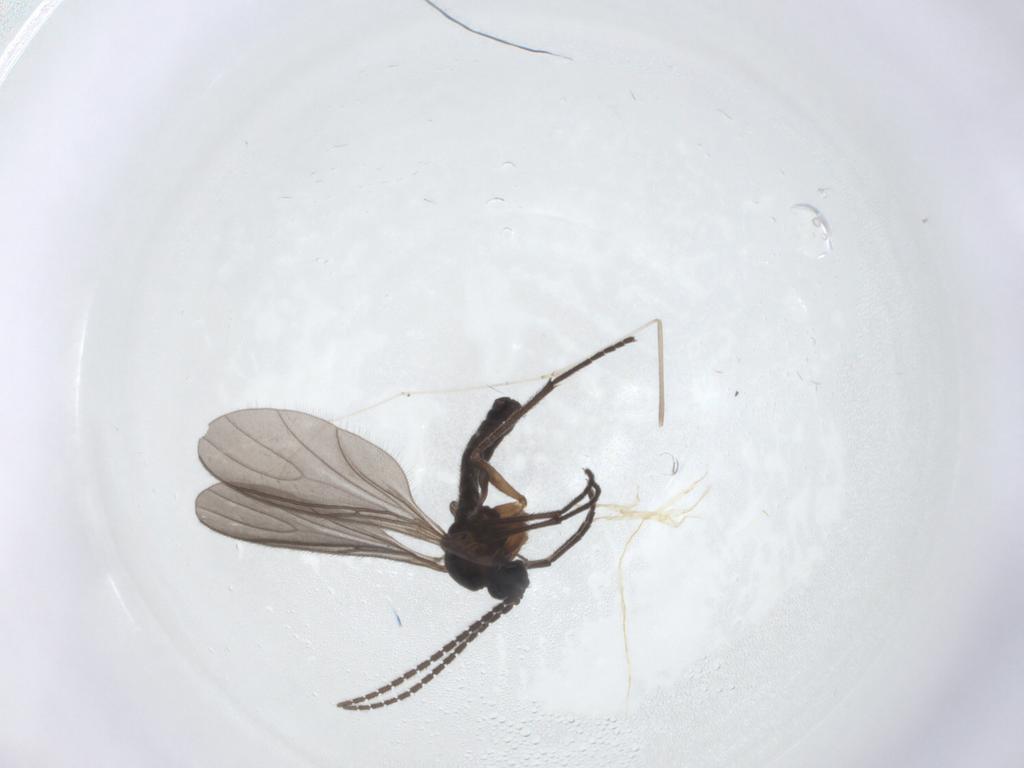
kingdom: Animalia
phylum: Arthropoda
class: Insecta
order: Diptera
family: Sciaridae
